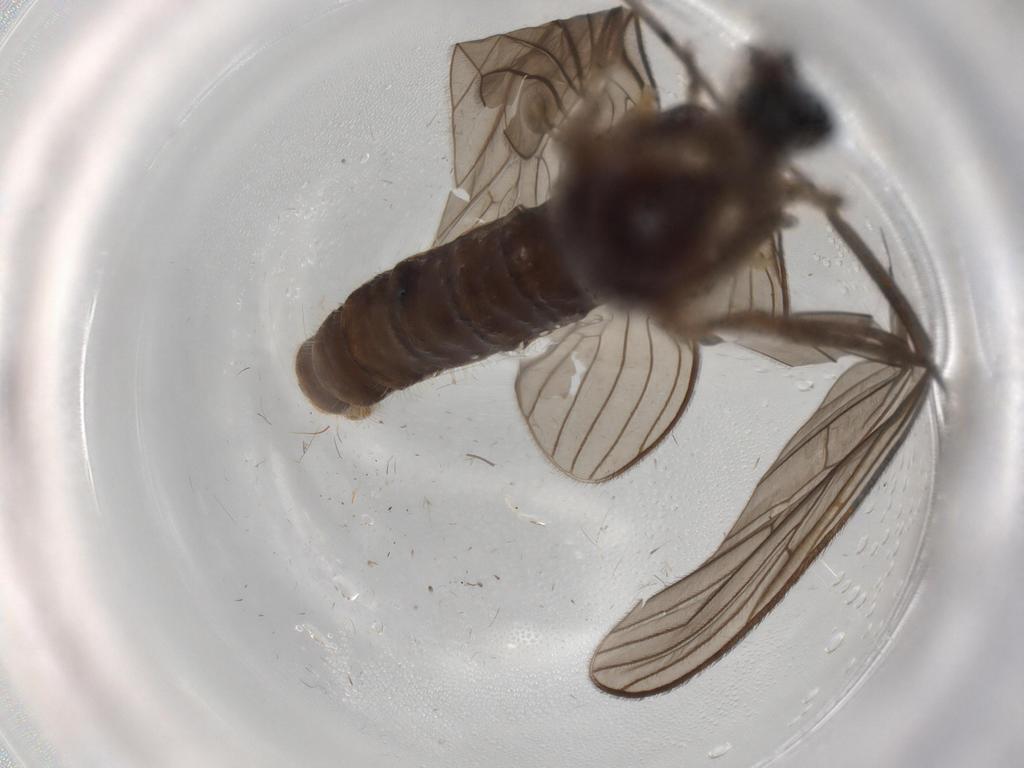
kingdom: Animalia
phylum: Arthropoda
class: Insecta
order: Diptera
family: Limoniidae
